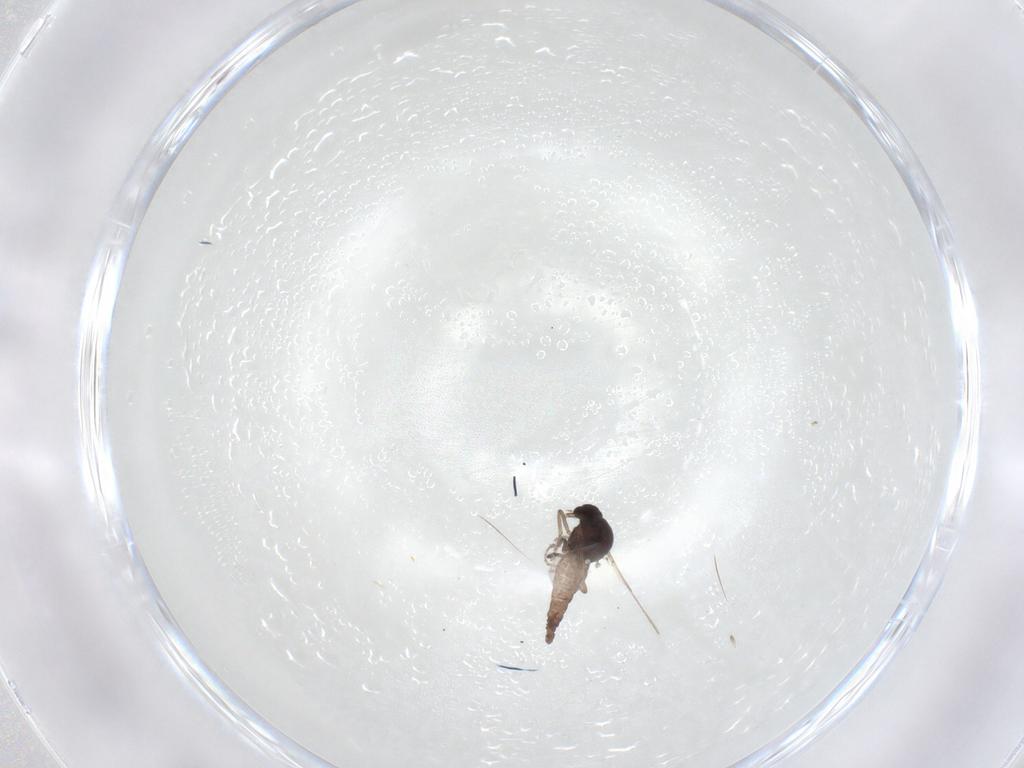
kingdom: Animalia
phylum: Arthropoda
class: Insecta
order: Diptera
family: Ceratopogonidae
